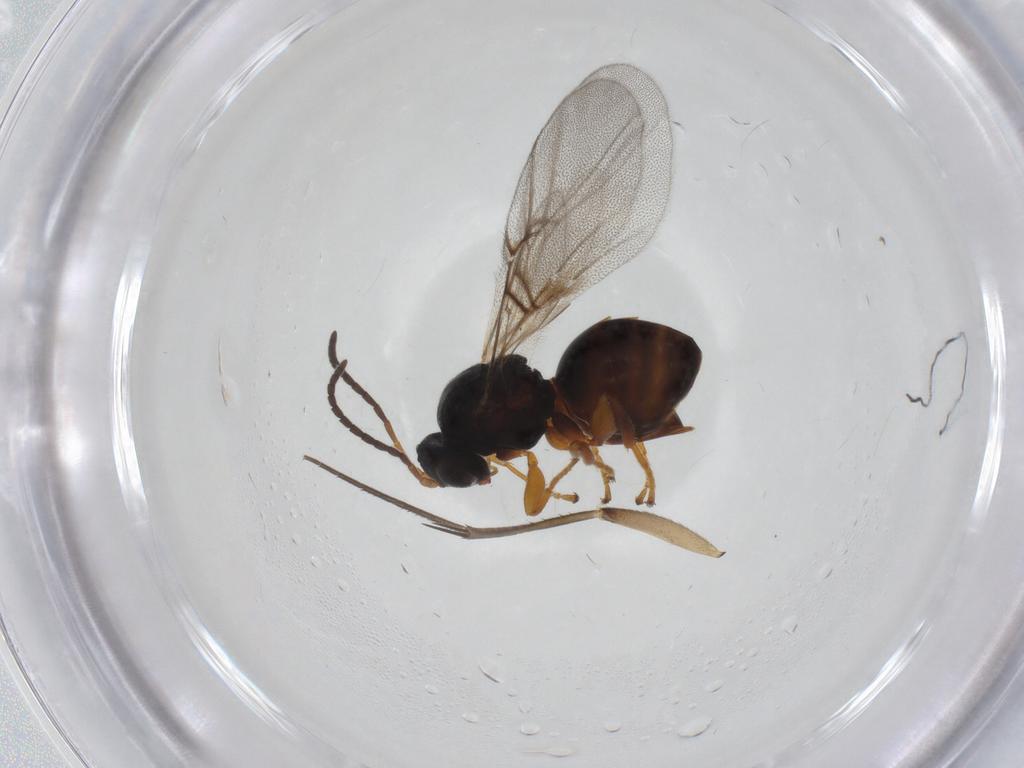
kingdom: Animalia
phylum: Arthropoda
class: Insecta
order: Hymenoptera
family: Cynipidae
